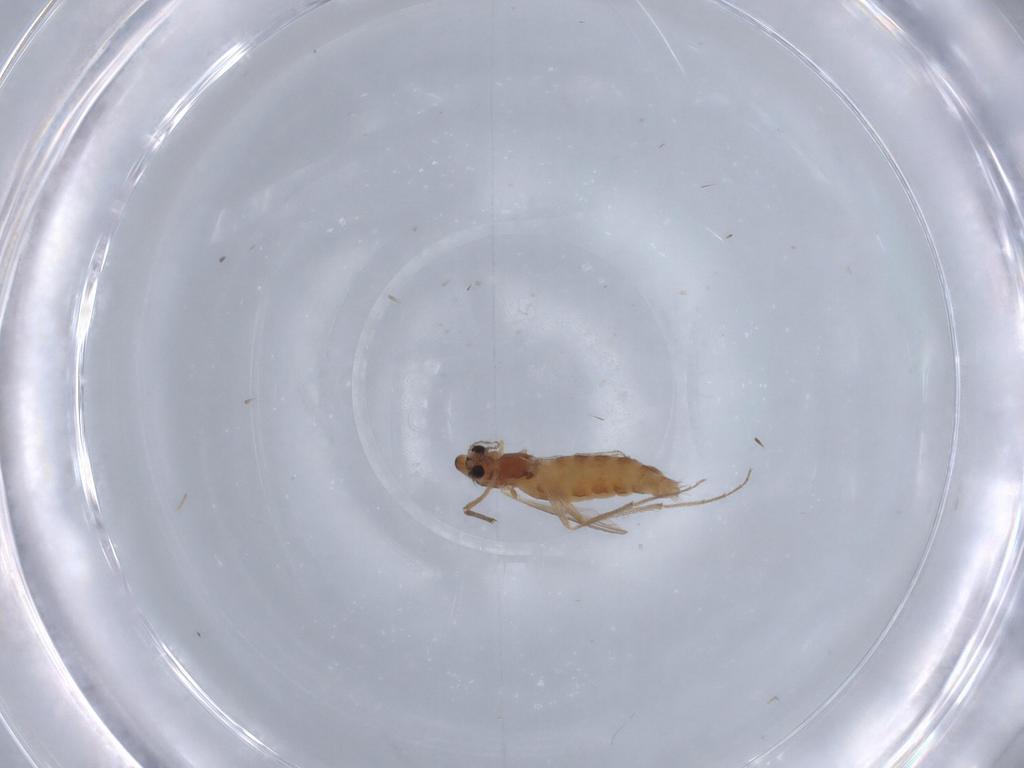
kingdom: Animalia
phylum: Arthropoda
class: Insecta
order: Diptera
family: Chironomidae
